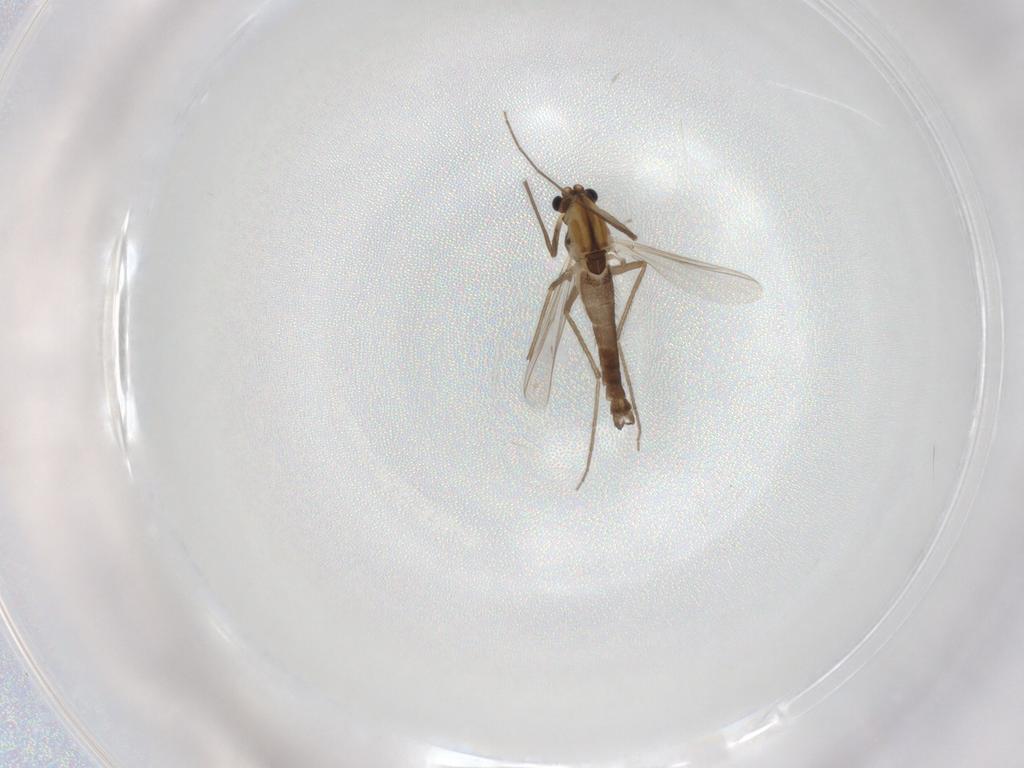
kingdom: Animalia
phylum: Arthropoda
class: Insecta
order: Diptera
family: Chironomidae
